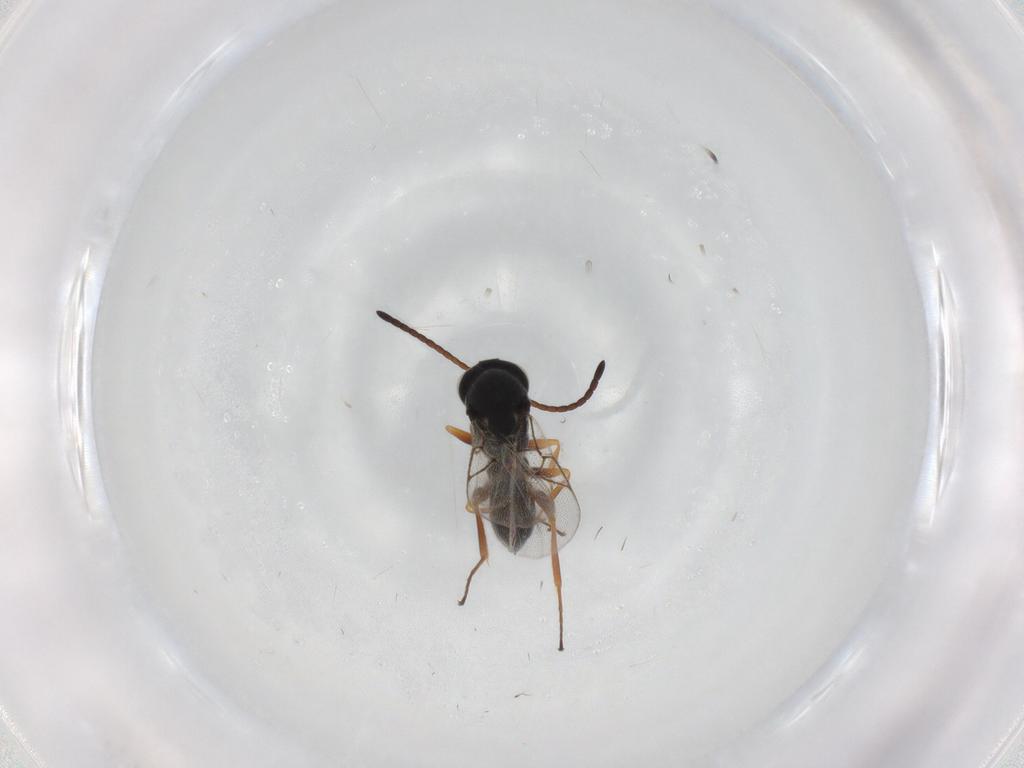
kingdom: Animalia
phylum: Arthropoda
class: Insecta
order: Hymenoptera
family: Figitidae
